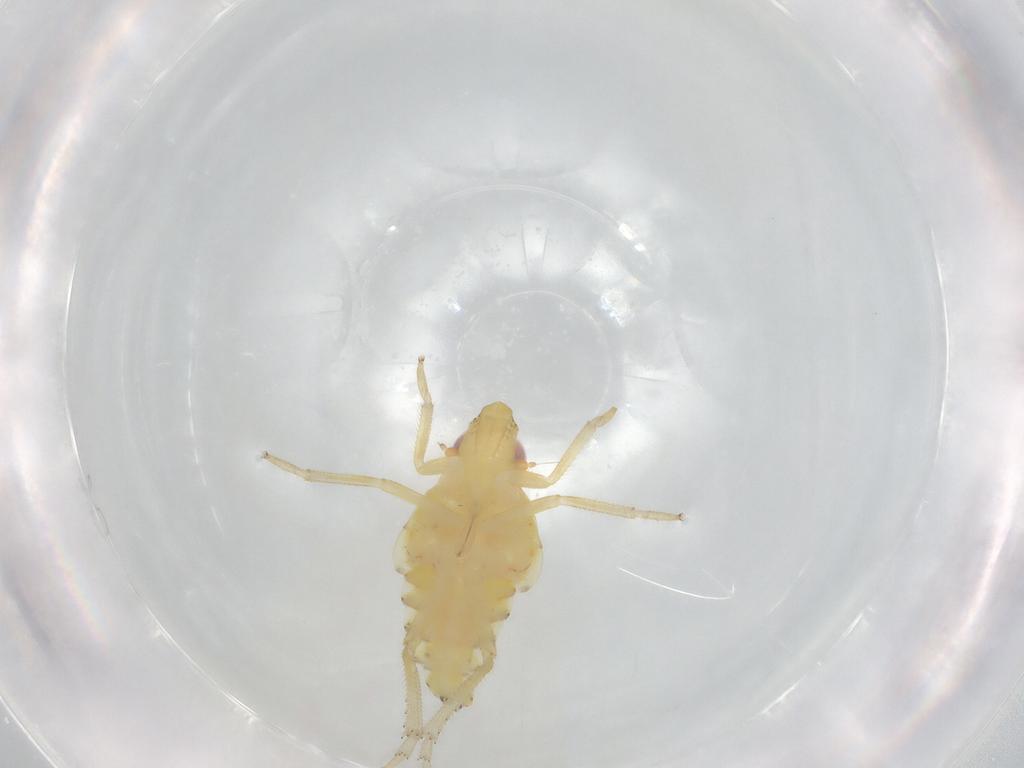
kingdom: Animalia
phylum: Arthropoda
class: Insecta
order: Hemiptera
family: Tropiduchidae
